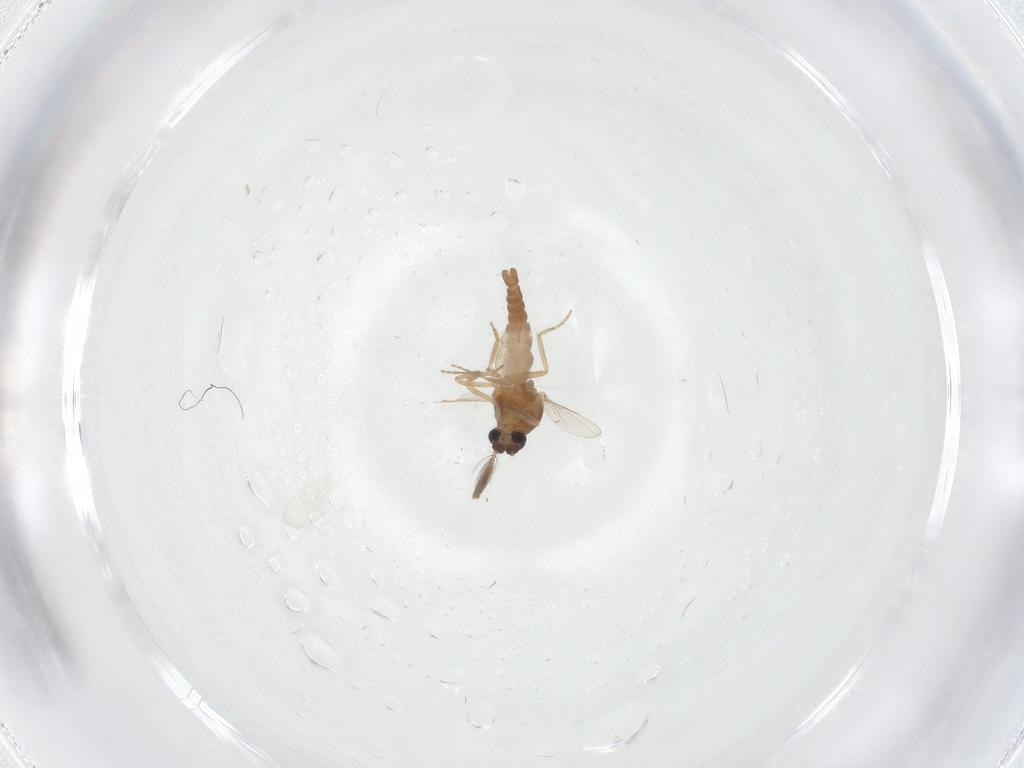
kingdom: Animalia
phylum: Arthropoda
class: Insecta
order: Diptera
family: Ceratopogonidae
